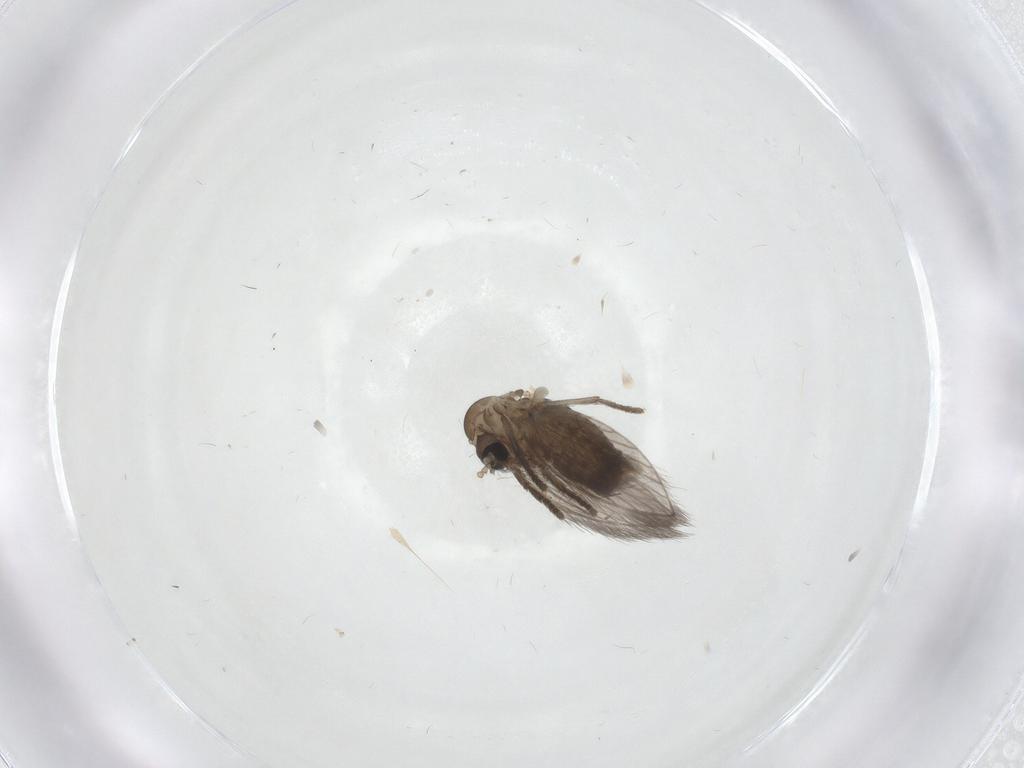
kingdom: Animalia
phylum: Arthropoda
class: Insecta
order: Diptera
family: Psychodidae
